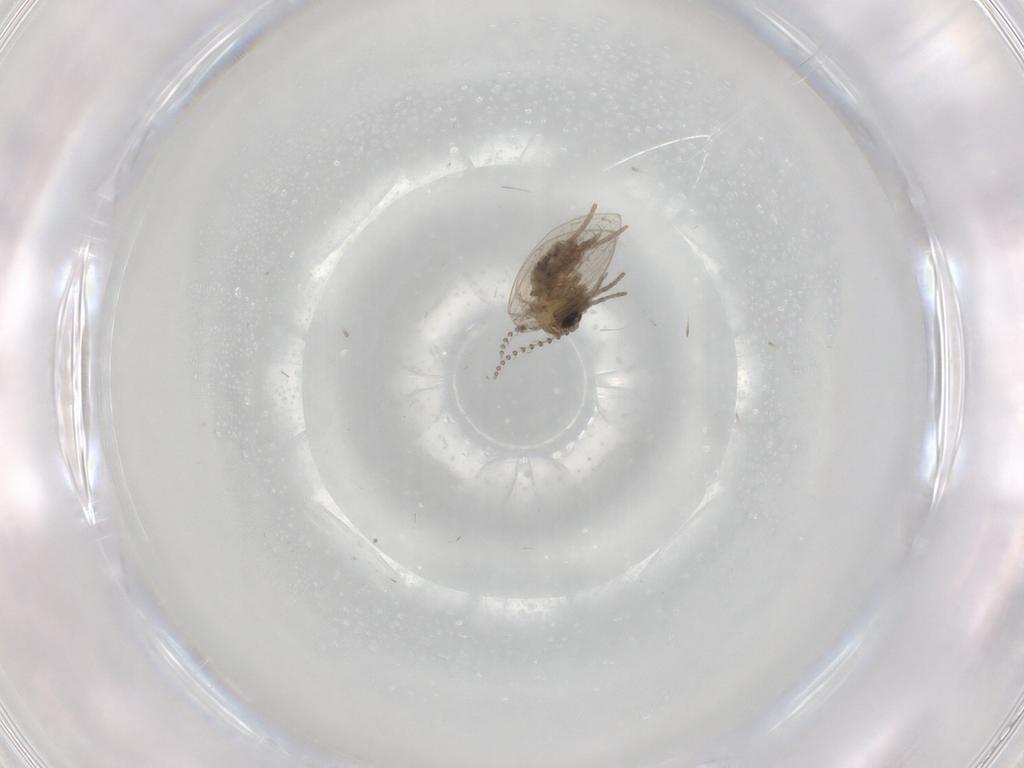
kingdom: Animalia
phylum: Arthropoda
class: Insecta
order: Diptera
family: Psychodidae
